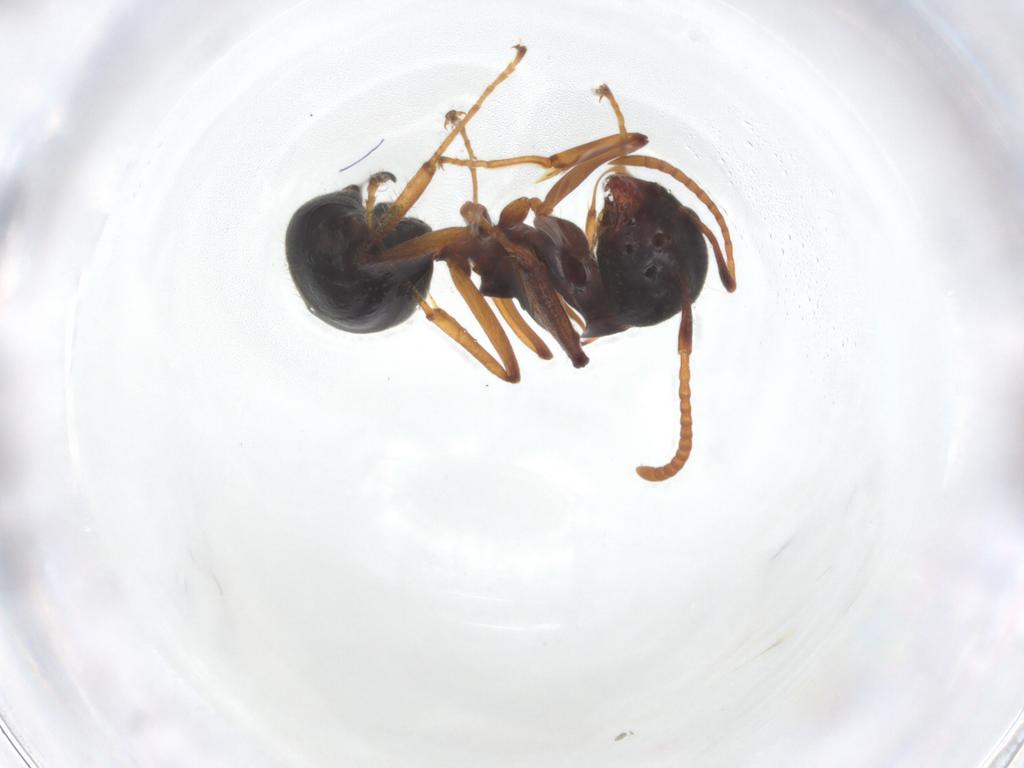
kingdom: Animalia
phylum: Arthropoda
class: Insecta
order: Hymenoptera
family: Formicidae
